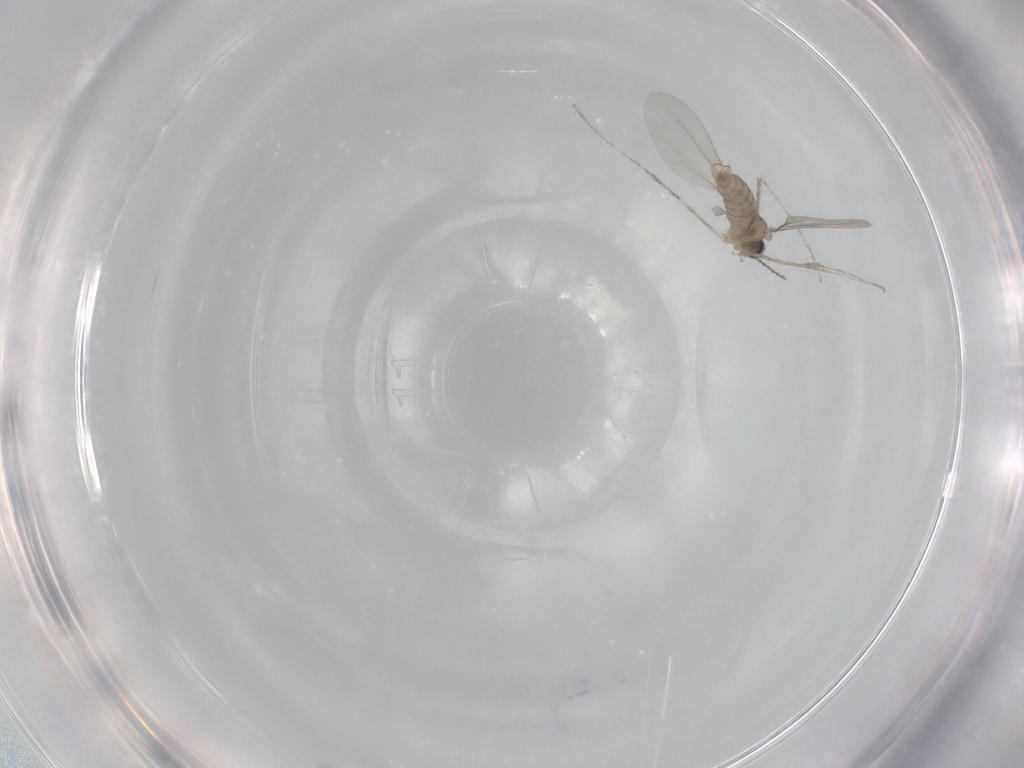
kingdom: Animalia
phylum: Arthropoda
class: Insecta
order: Diptera
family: Cecidomyiidae
